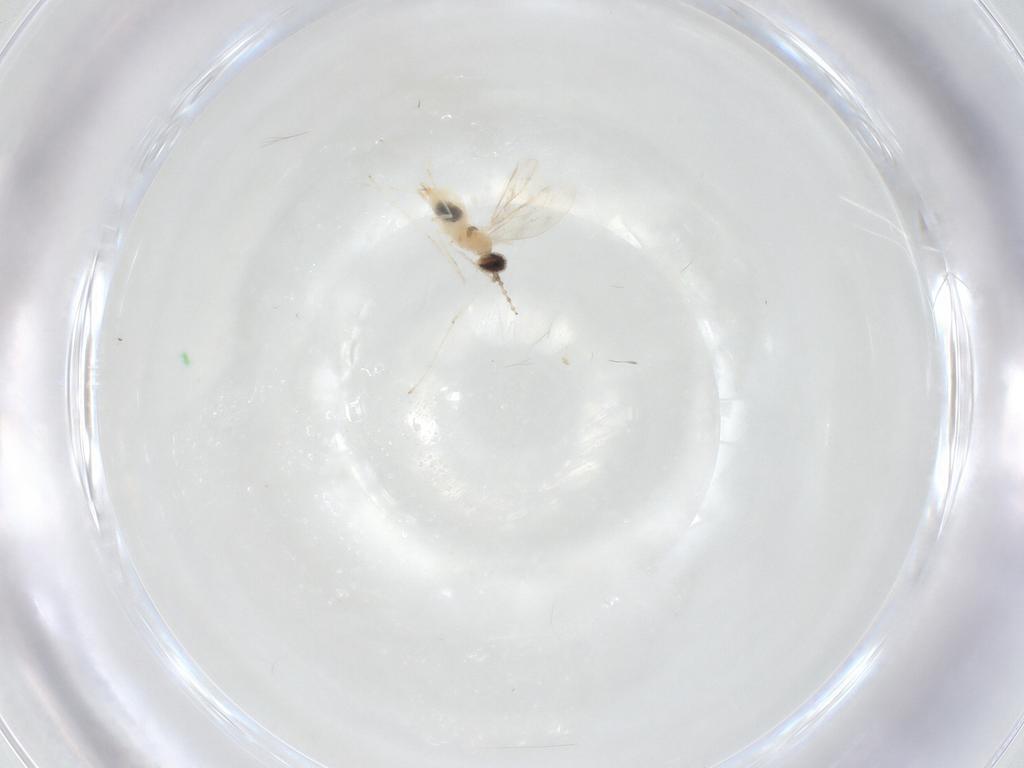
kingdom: Animalia
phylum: Arthropoda
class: Insecta
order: Diptera
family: Cecidomyiidae
